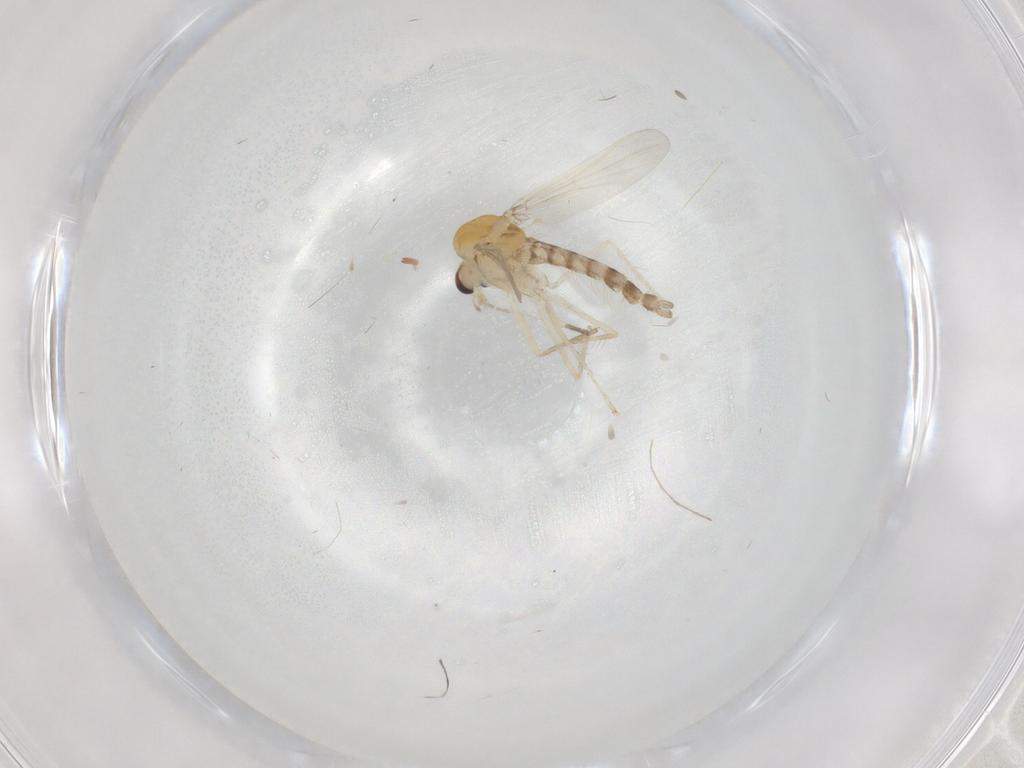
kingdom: Animalia
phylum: Arthropoda
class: Insecta
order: Diptera
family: Chironomidae
